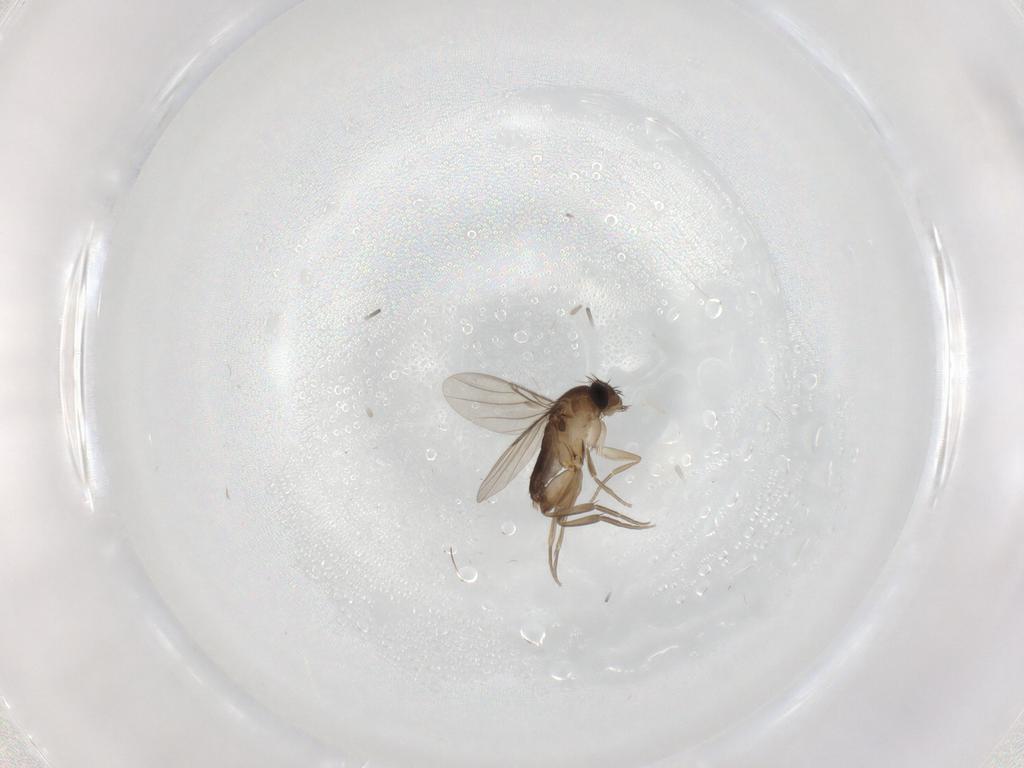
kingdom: Animalia
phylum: Arthropoda
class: Insecta
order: Diptera
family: Phoridae
